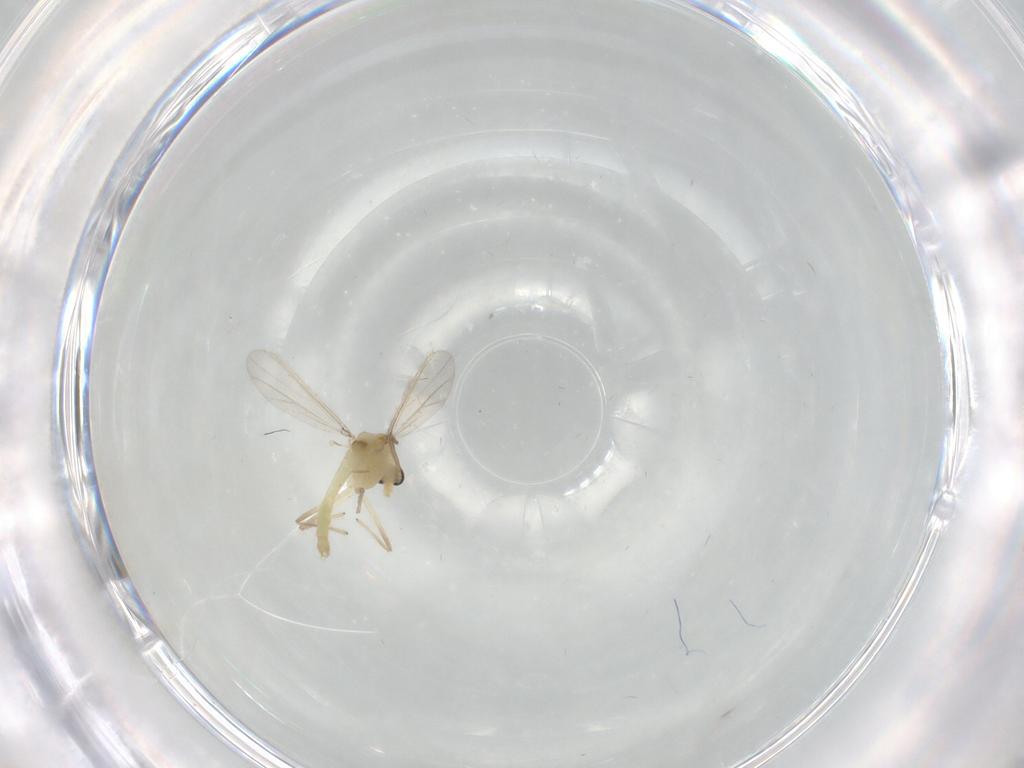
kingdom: Animalia
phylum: Arthropoda
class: Insecta
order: Diptera
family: Chironomidae
